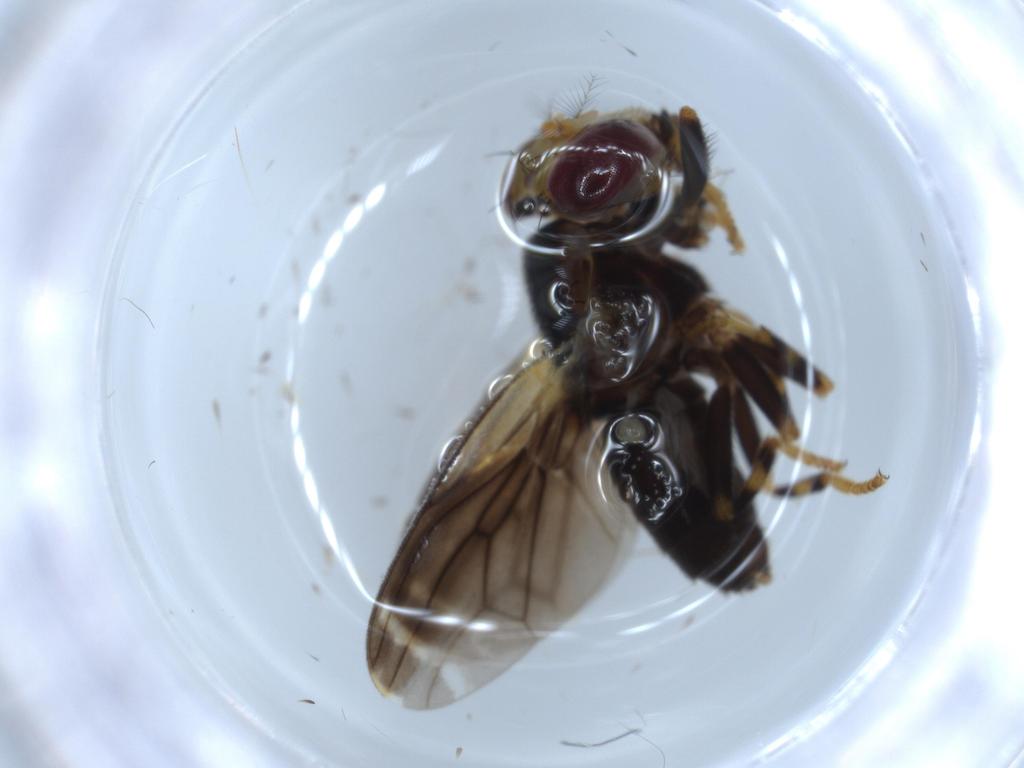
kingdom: Animalia
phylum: Arthropoda
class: Insecta
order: Diptera
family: Periscelididae
